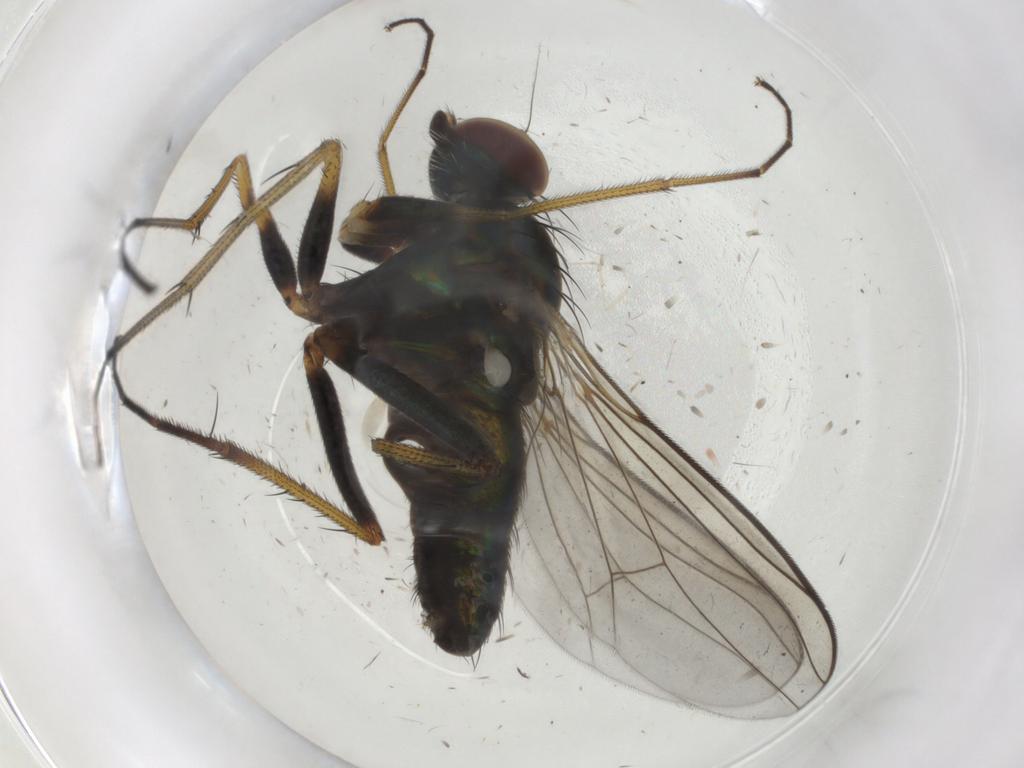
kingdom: Animalia
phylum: Arthropoda
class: Insecta
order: Diptera
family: Dolichopodidae
